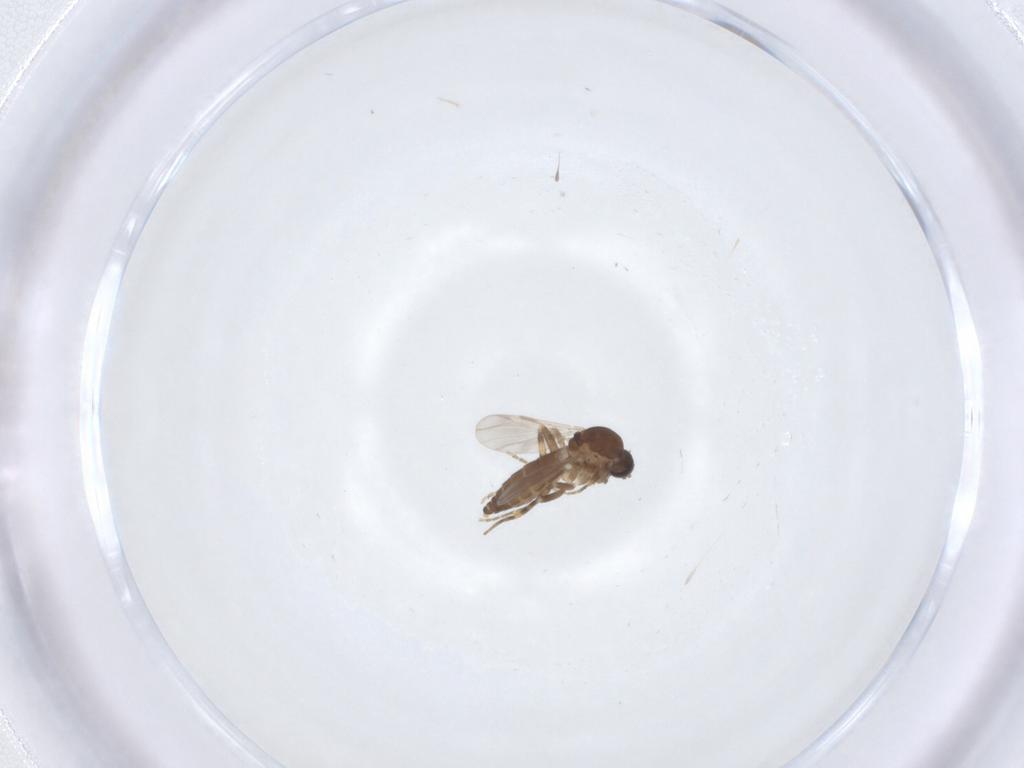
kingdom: Animalia
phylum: Arthropoda
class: Insecta
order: Diptera
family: Ceratopogonidae
